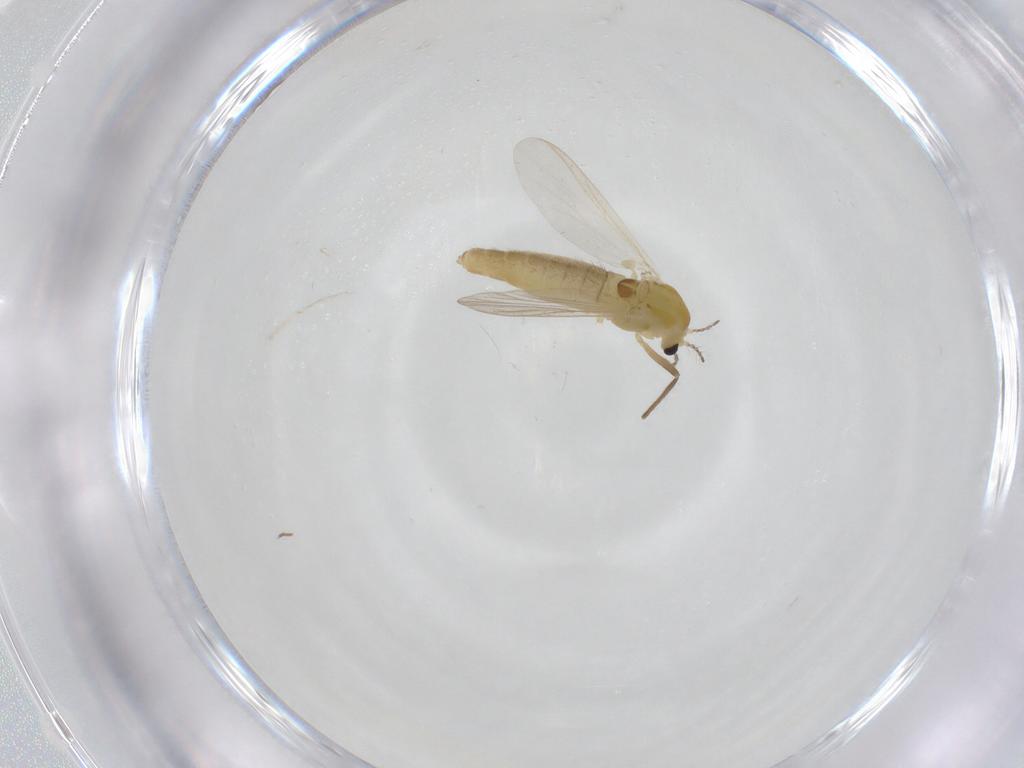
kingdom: Animalia
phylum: Arthropoda
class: Insecta
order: Diptera
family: Chironomidae
